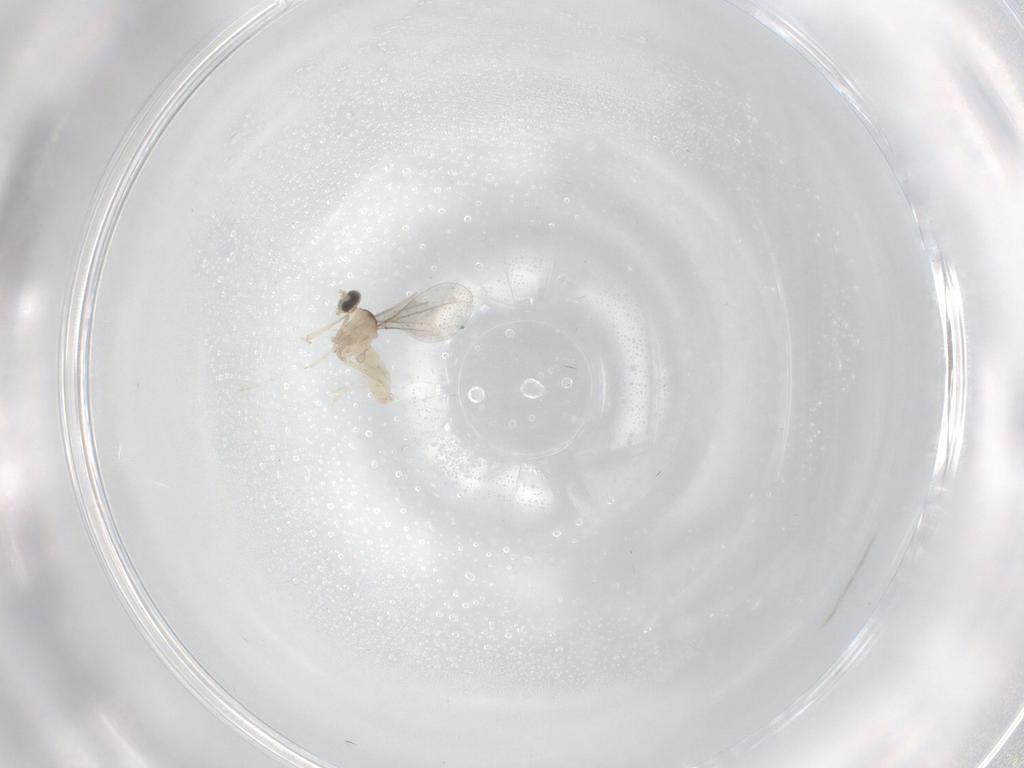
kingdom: Animalia
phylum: Arthropoda
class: Insecta
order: Diptera
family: Cecidomyiidae
